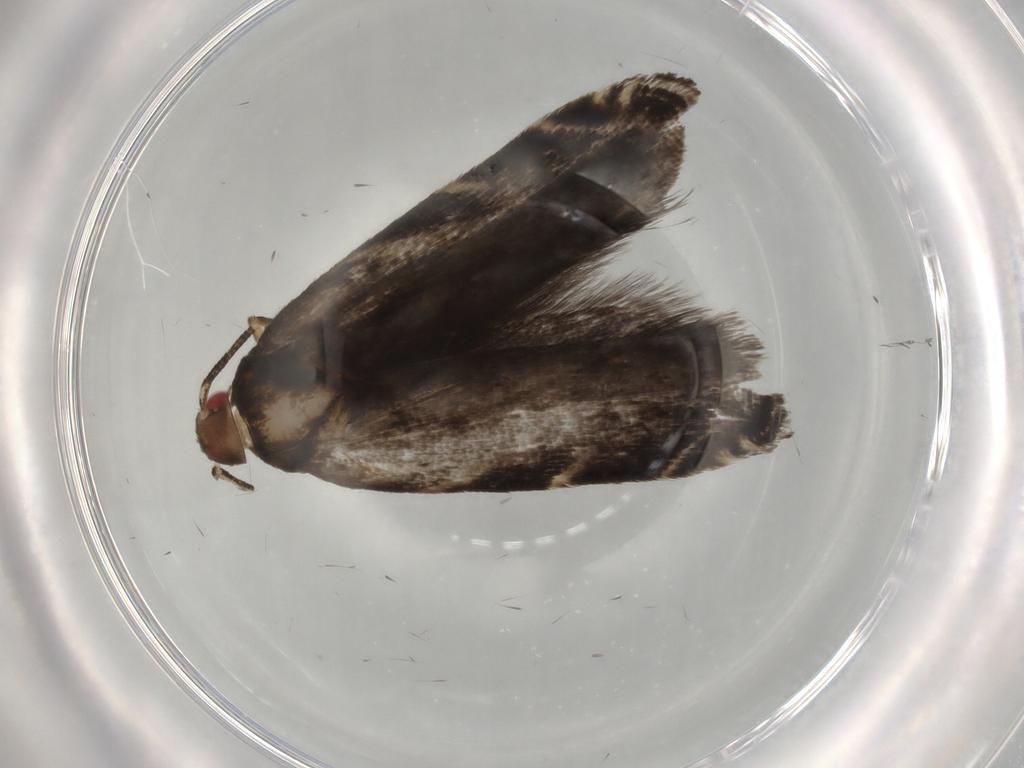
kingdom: Animalia
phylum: Arthropoda
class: Insecta
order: Lepidoptera
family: Crambidae
